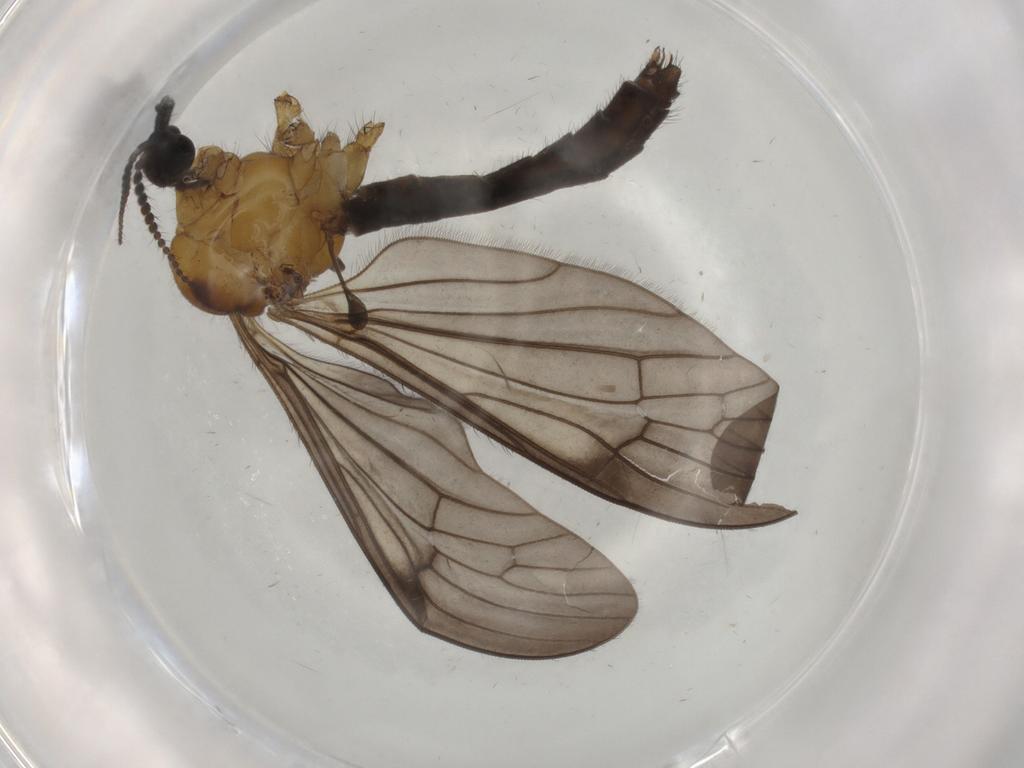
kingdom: Animalia
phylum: Arthropoda
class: Insecta
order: Diptera
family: Limoniidae
